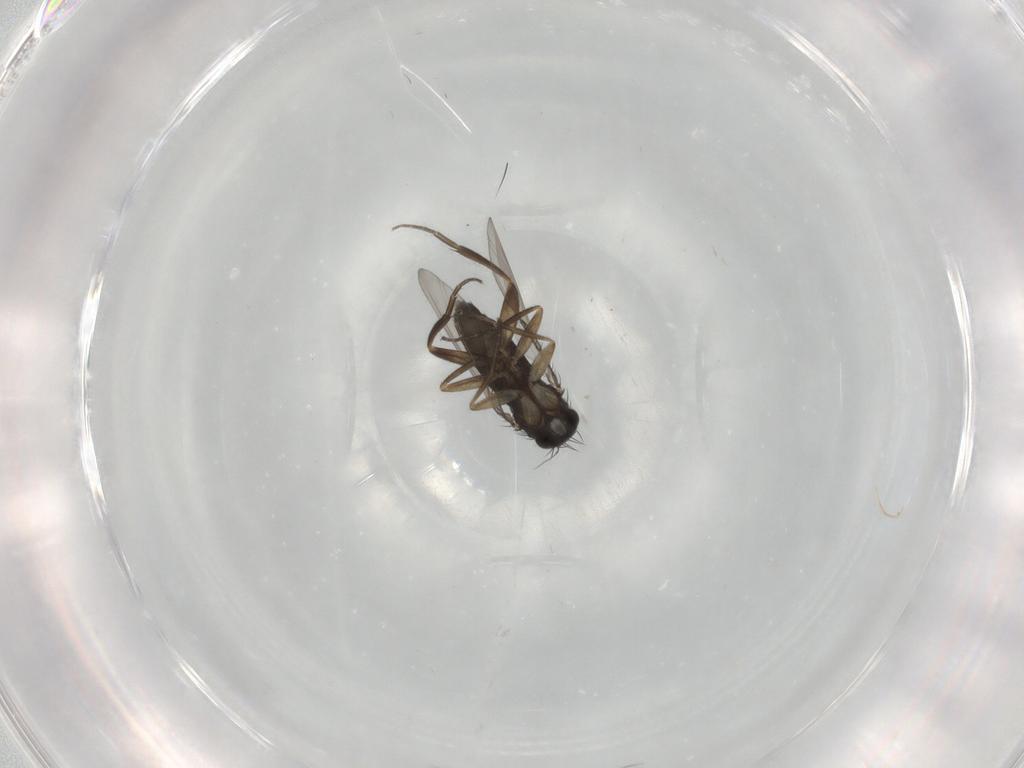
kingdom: Animalia
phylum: Arthropoda
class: Insecta
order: Diptera
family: Phoridae
